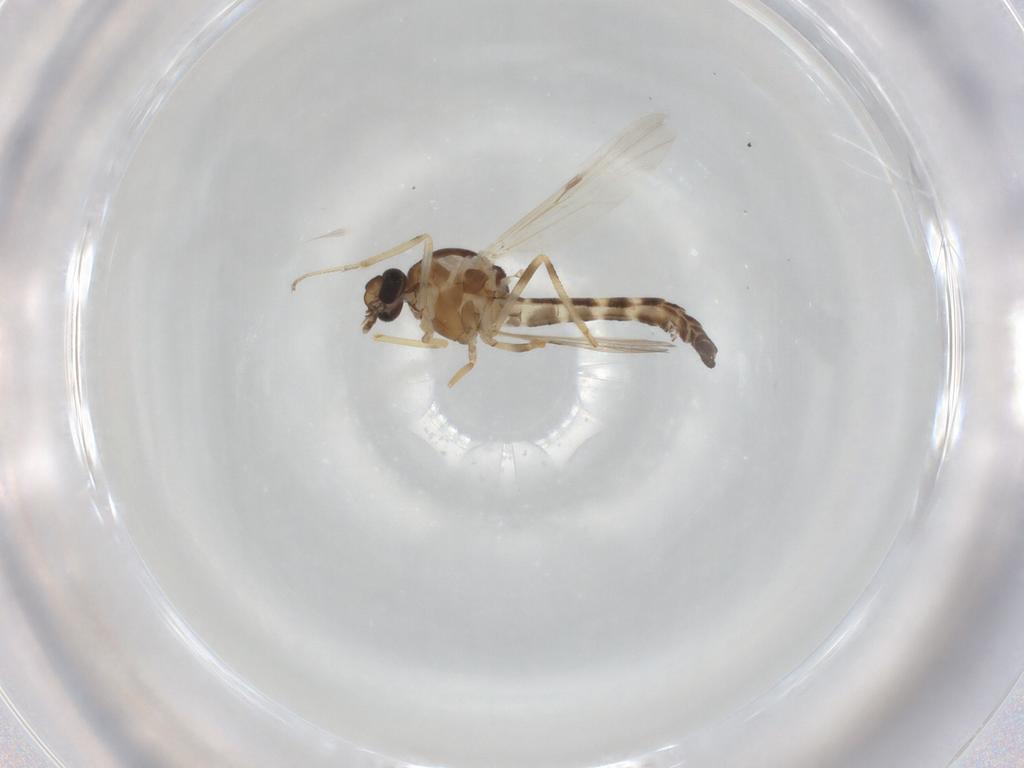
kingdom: Animalia
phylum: Arthropoda
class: Insecta
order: Diptera
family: Ceratopogonidae
